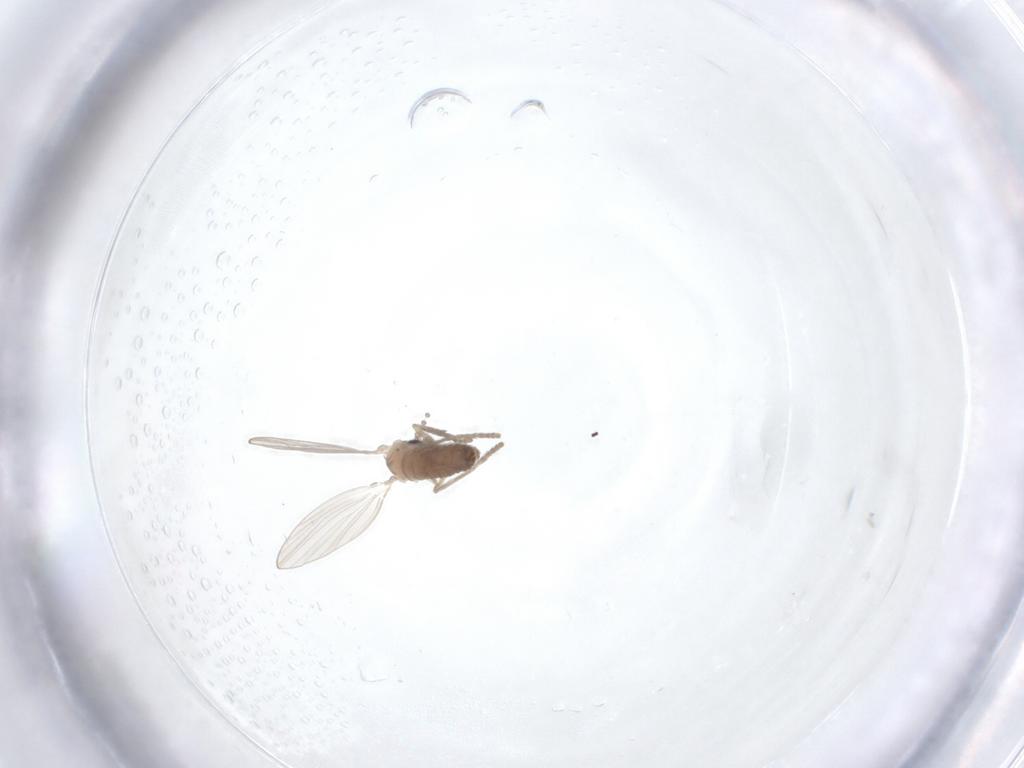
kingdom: Animalia
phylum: Arthropoda
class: Insecta
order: Diptera
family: Psychodidae
